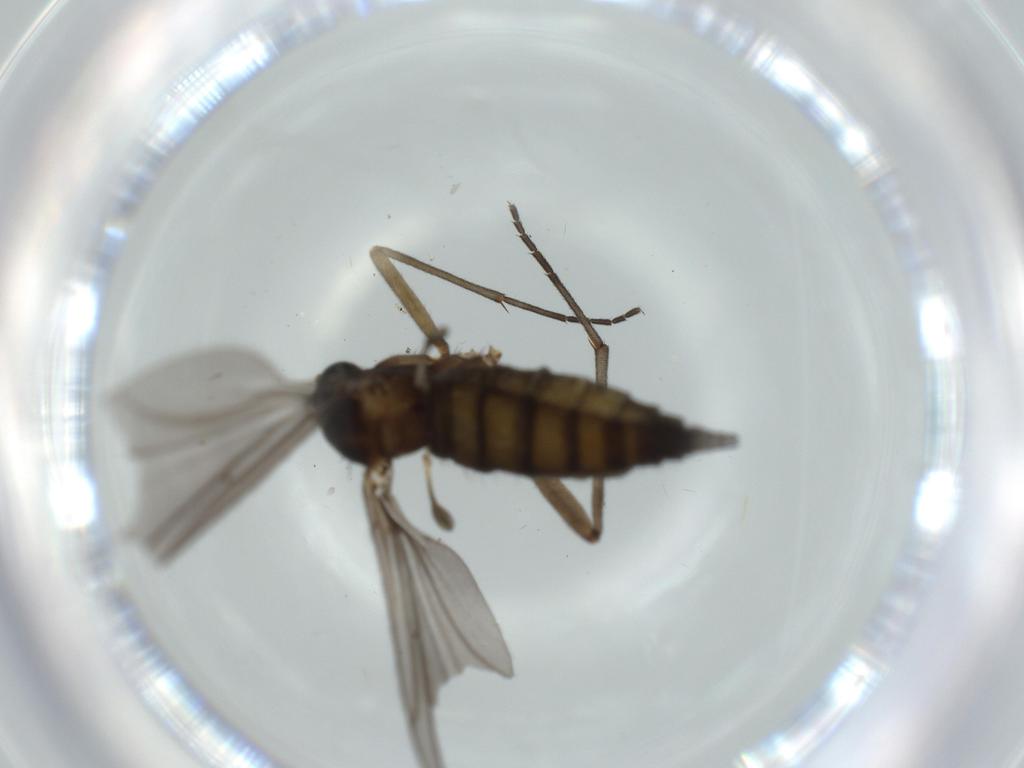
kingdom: Animalia
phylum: Arthropoda
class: Insecta
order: Diptera
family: Sciaridae
